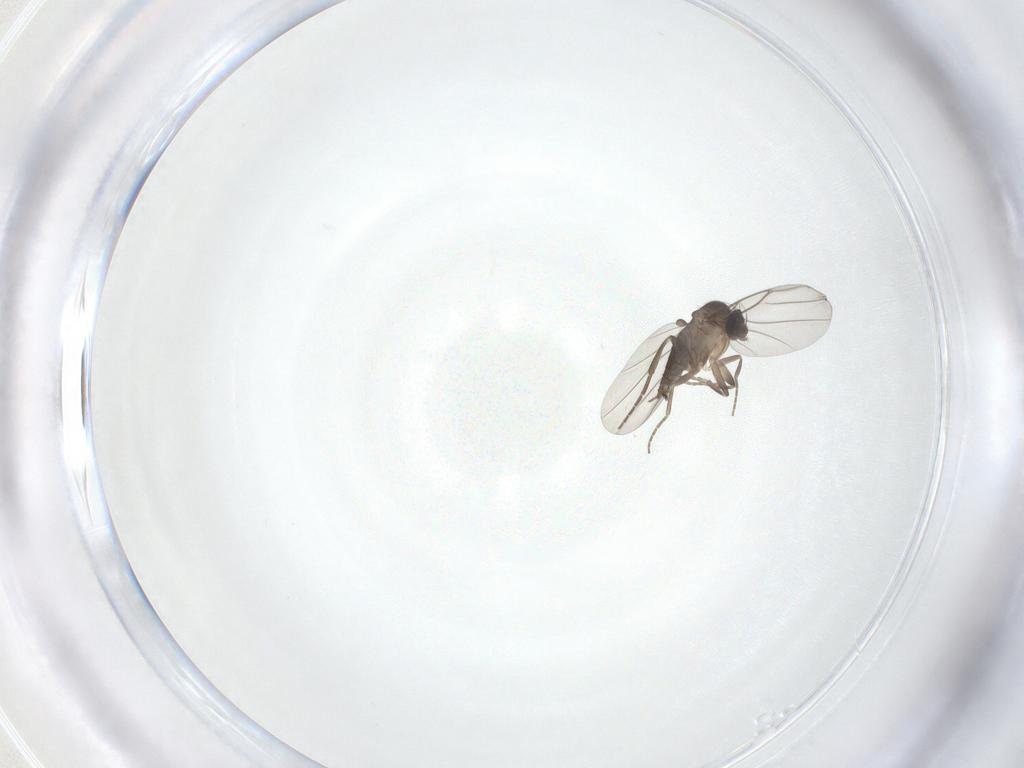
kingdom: Animalia
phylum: Arthropoda
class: Insecta
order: Diptera
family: Phoridae
